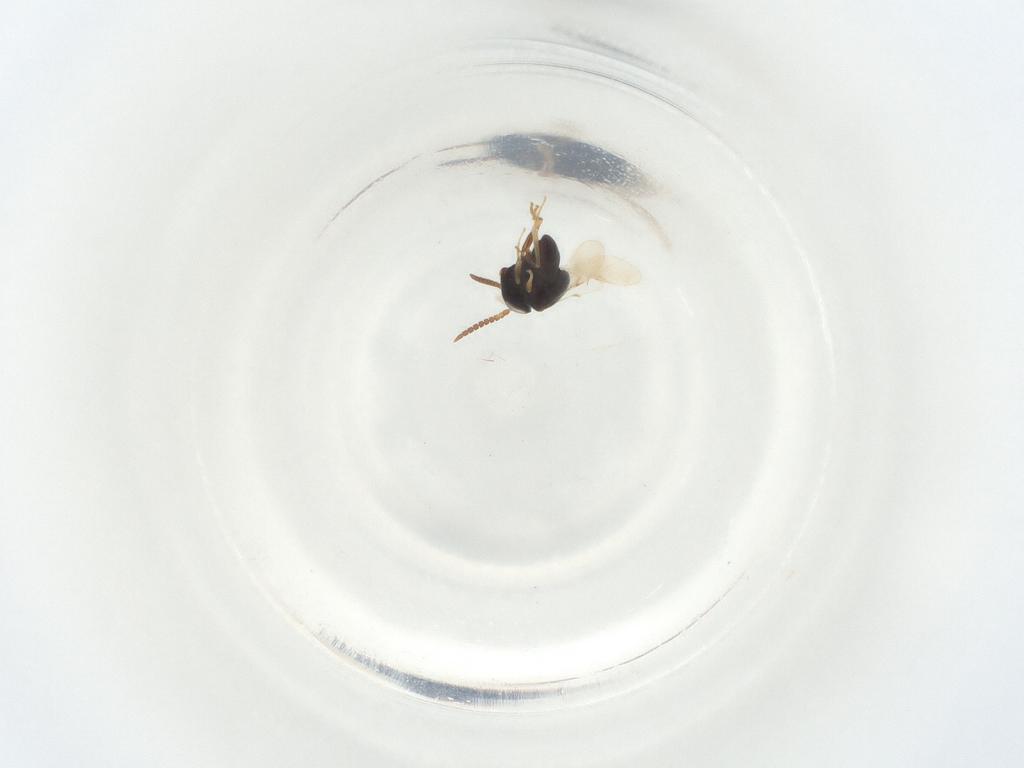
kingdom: Animalia
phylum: Arthropoda
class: Insecta
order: Hymenoptera
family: Scelionidae
